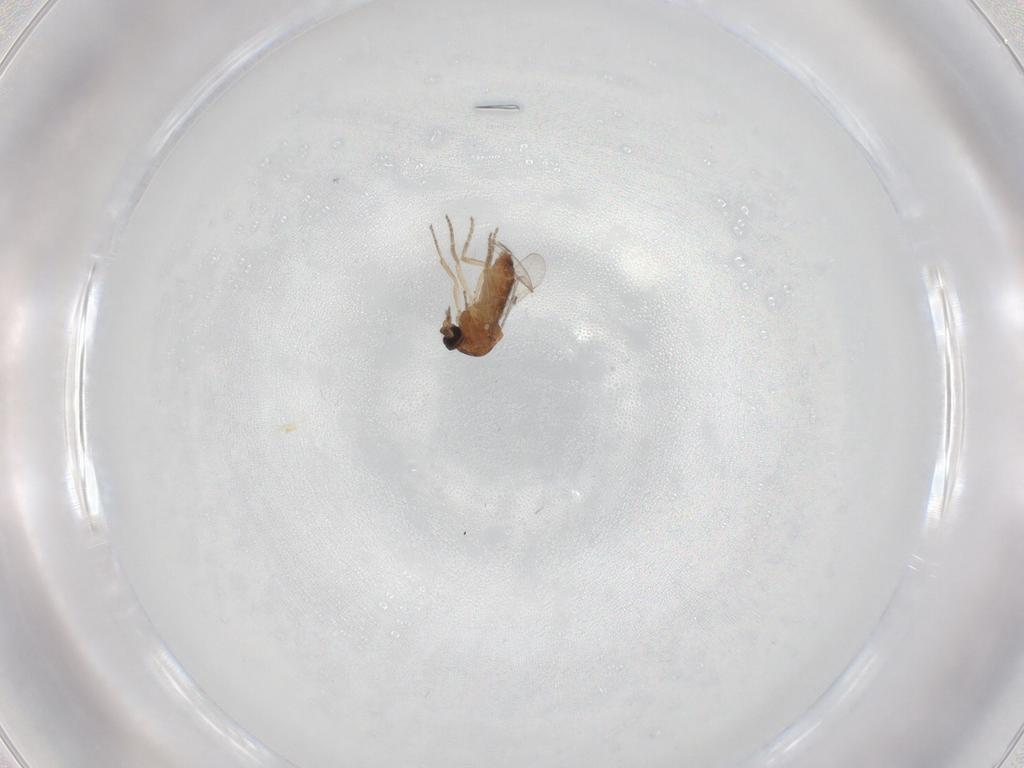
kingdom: Animalia
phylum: Arthropoda
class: Insecta
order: Diptera
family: Ceratopogonidae
